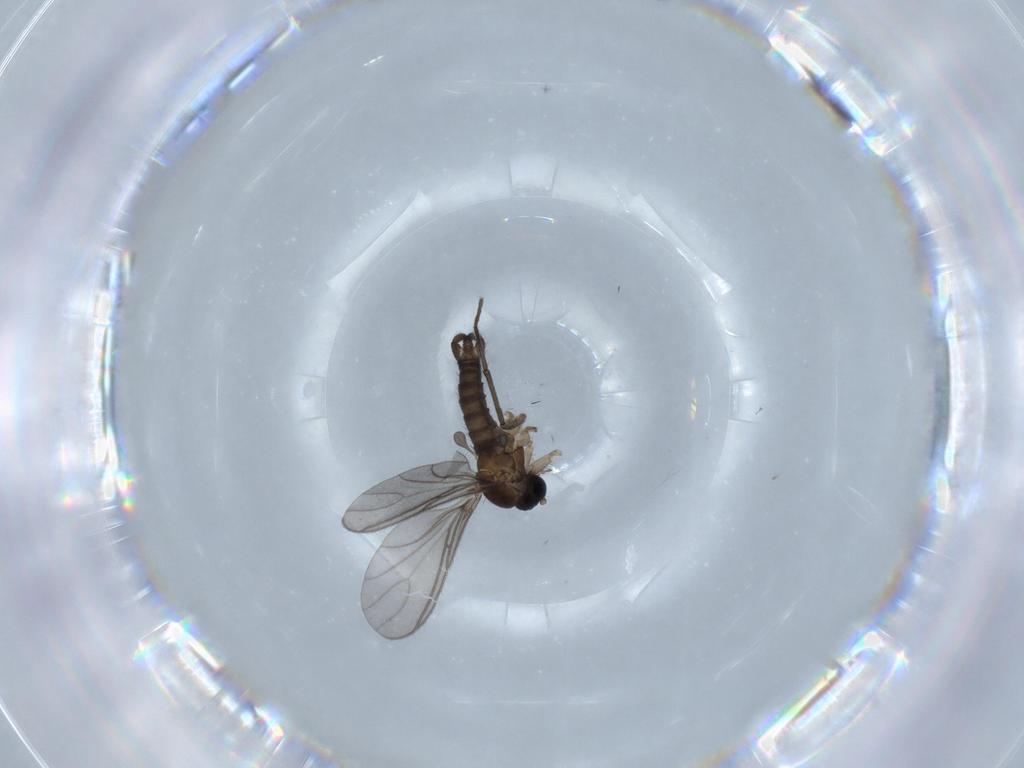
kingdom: Animalia
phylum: Arthropoda
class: Insecta
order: Diptera
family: Sciaridae
